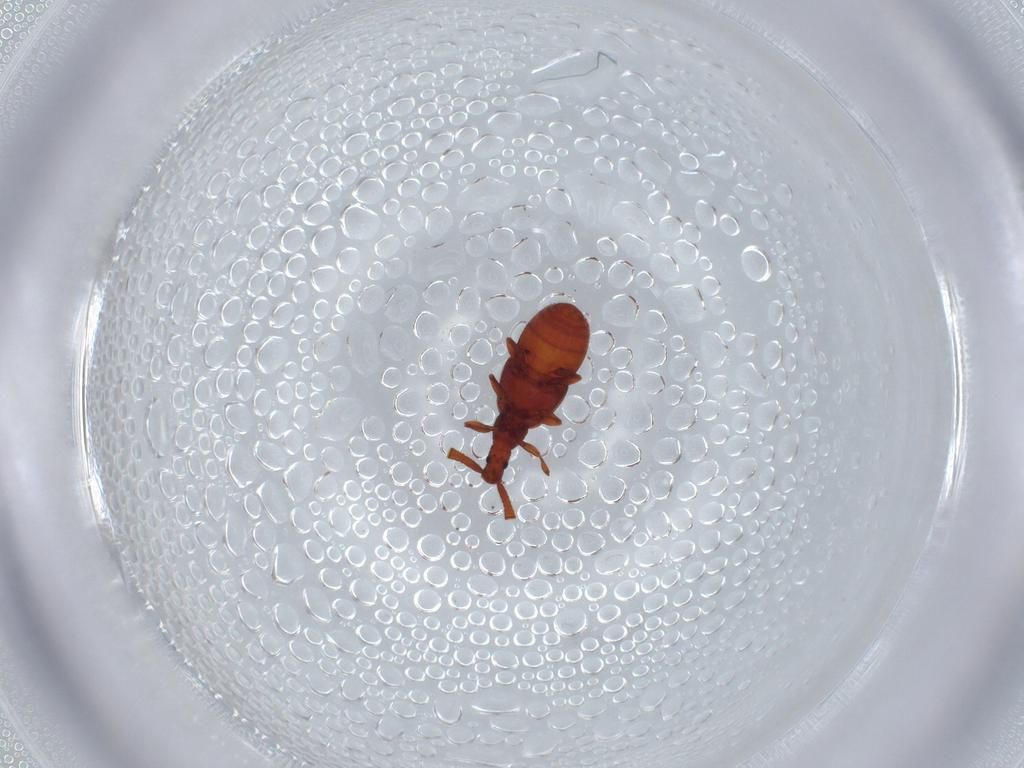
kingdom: Animalia
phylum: Arthropoda
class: Insecta
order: Coleoptera
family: Staphylinidae
